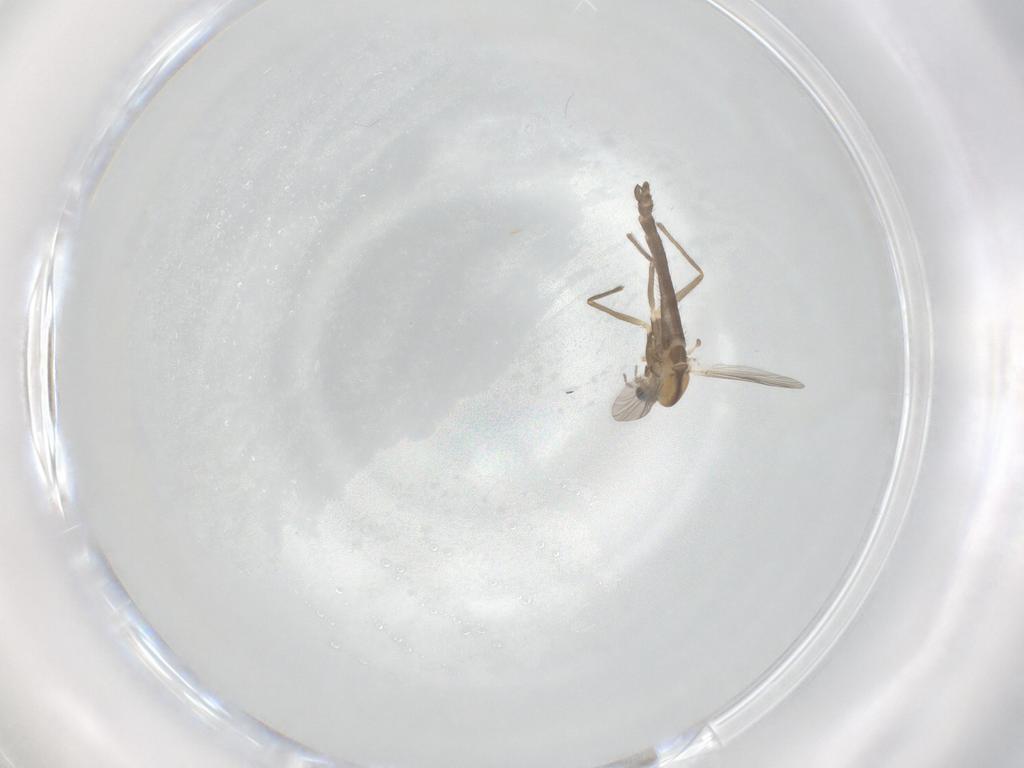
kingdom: Animalia
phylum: Arthropoda
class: Insecta
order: Diptera
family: Chironomidae
